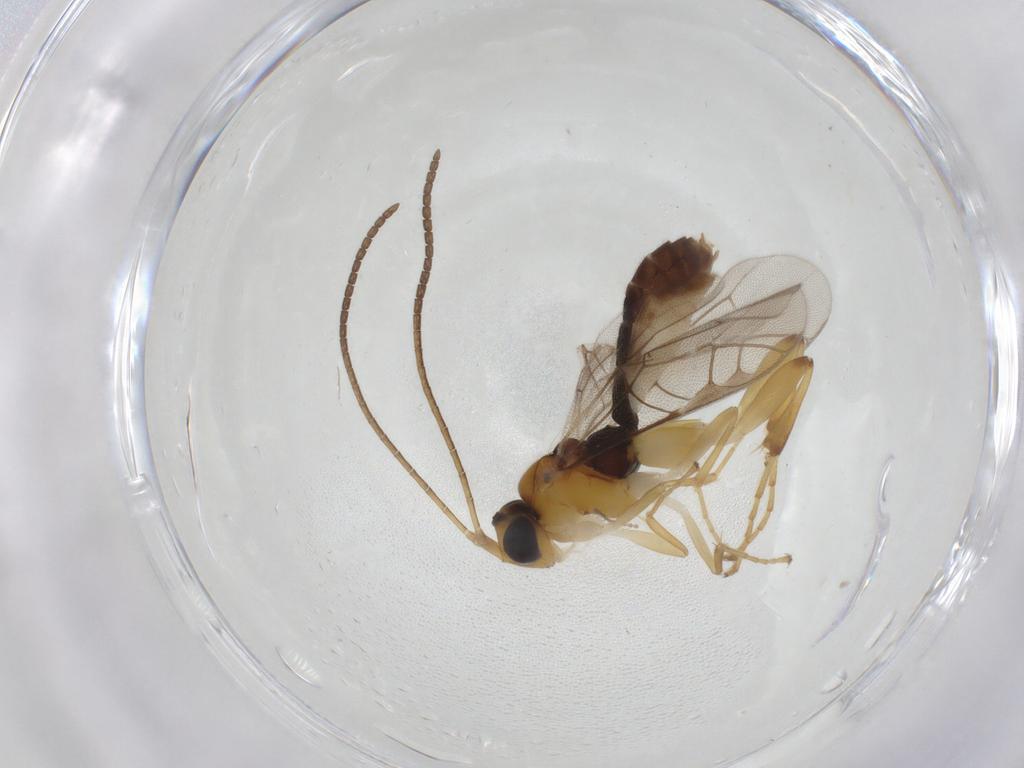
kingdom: Animalia
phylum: Arthropoda
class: Insecta
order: Hymenoptera
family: Ichneumonidae
